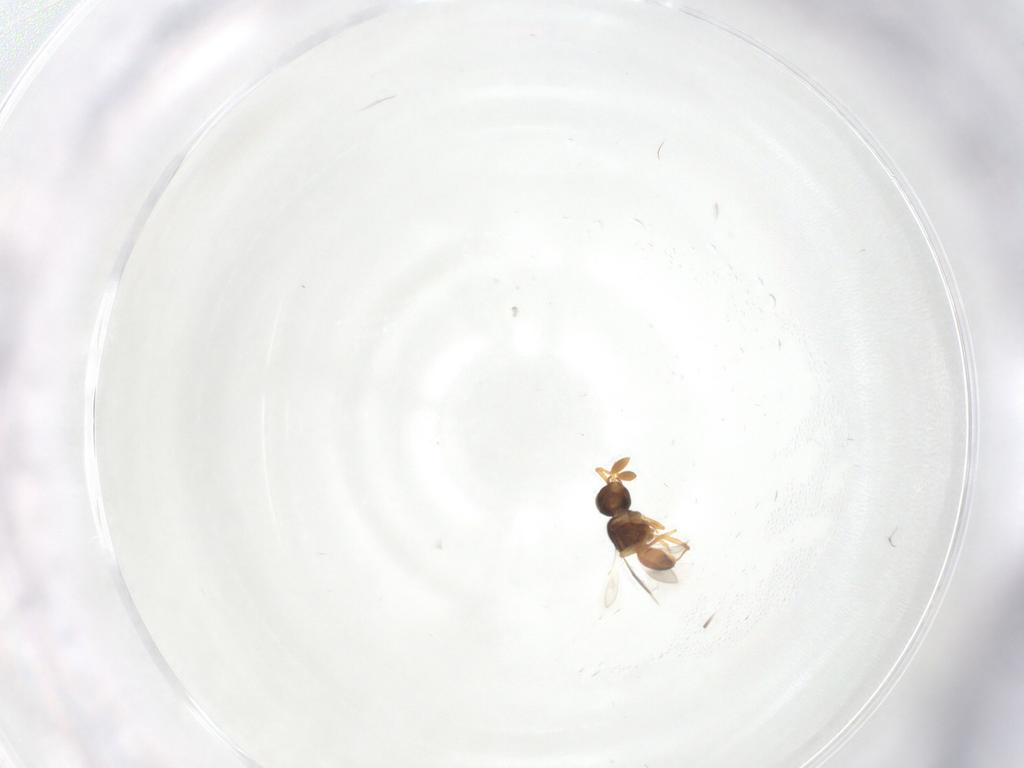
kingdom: Animalia
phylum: Arthropoda
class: Insecta
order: Hymenoptera
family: Scelionidae
